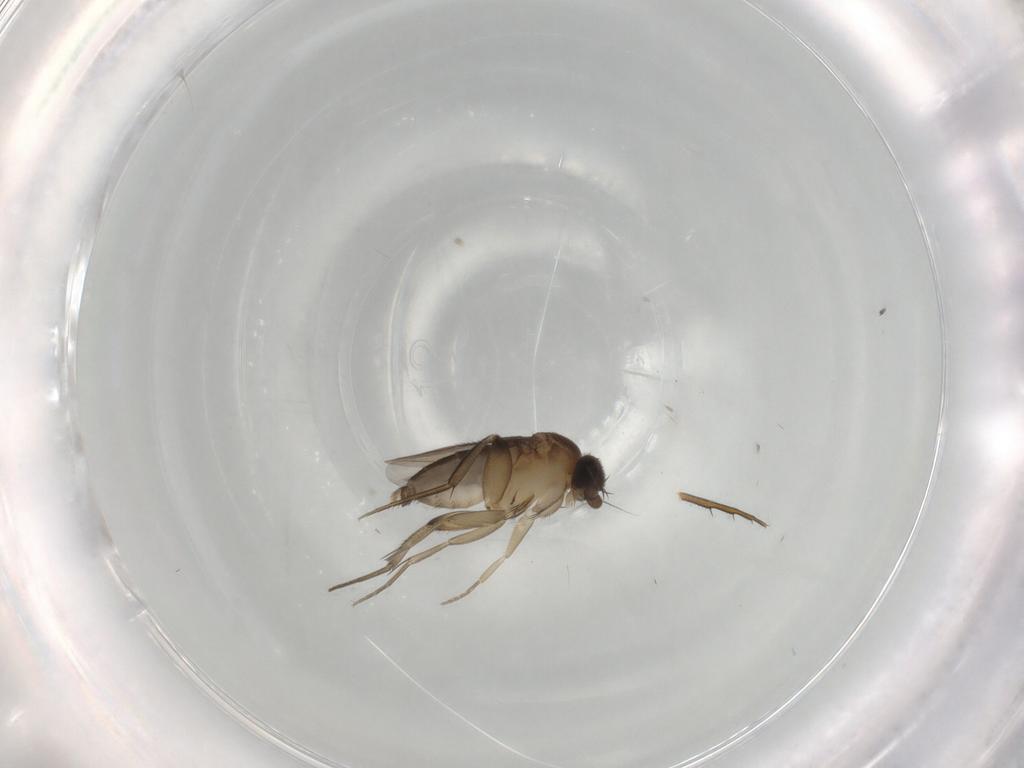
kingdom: Animalia
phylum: Arthropoda
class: Insecta
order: Diptera
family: Phoridae
